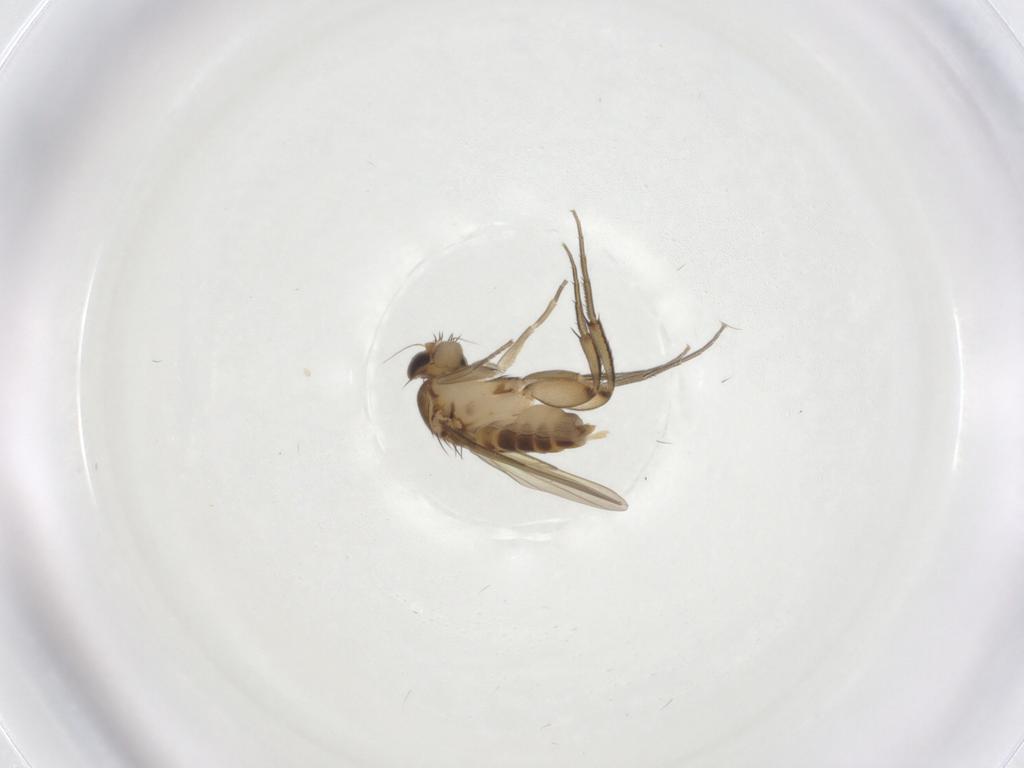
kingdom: Animalia
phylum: Arthropoda
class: Insecta
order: Diptera
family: Phoridae
